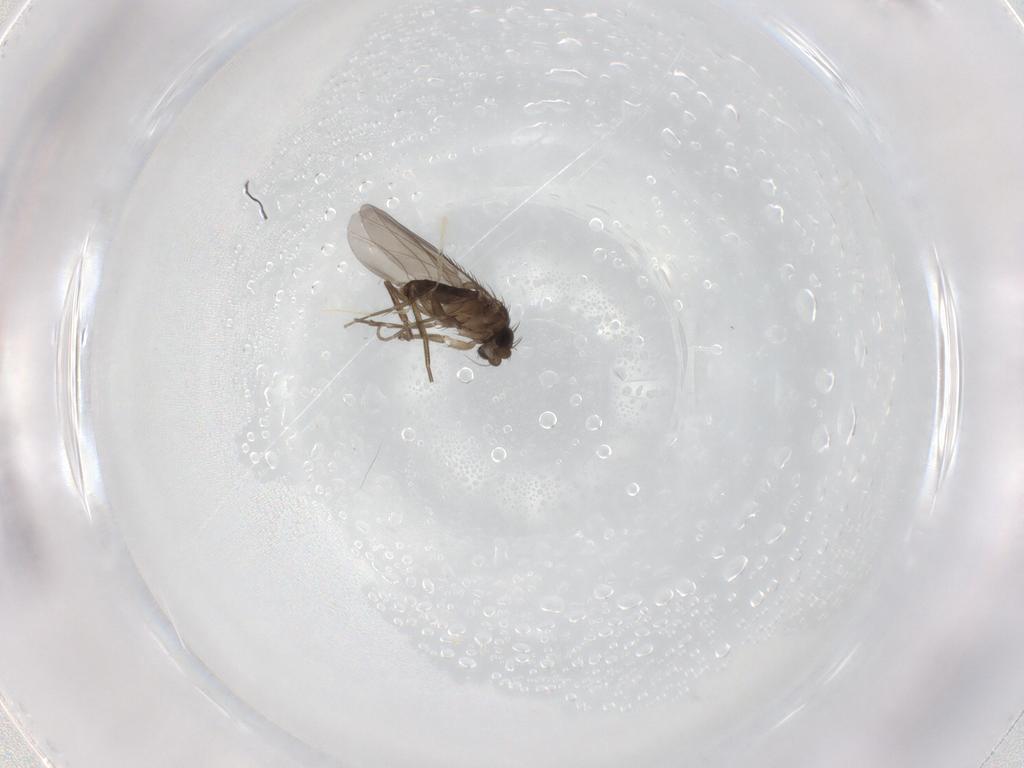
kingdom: Animalia
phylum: Arthropoda
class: Insecta
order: Diptera
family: Phoridae
